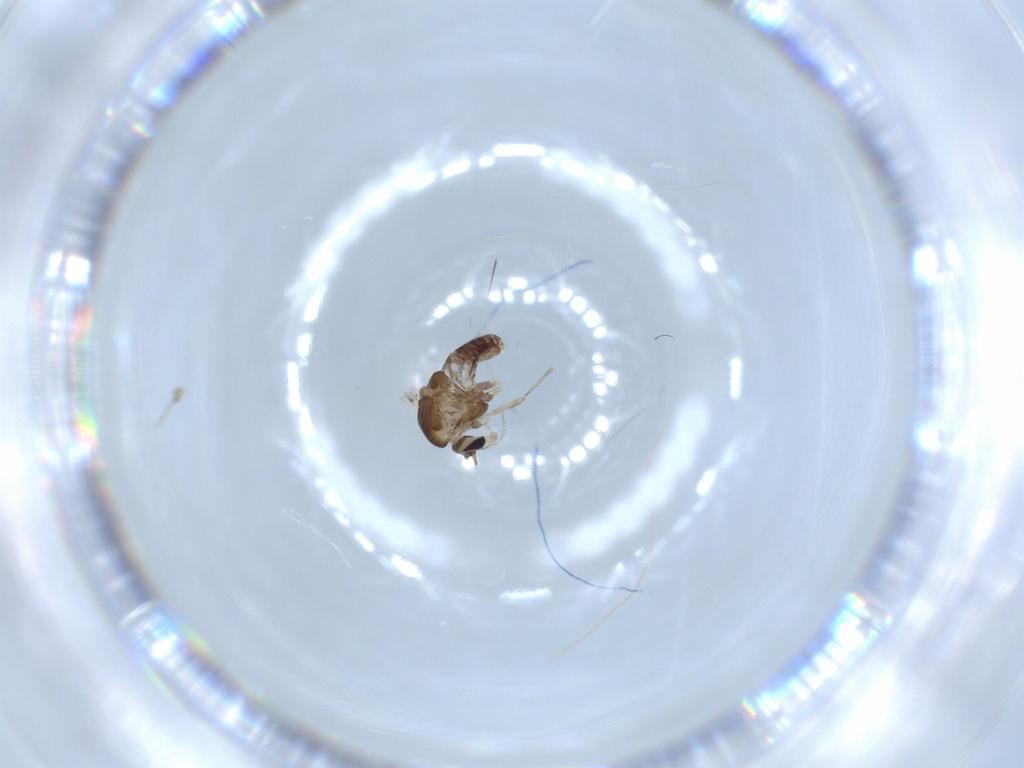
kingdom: Animalia
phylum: Arthropoda
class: Insecta
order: Diptera
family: Chironomidae
